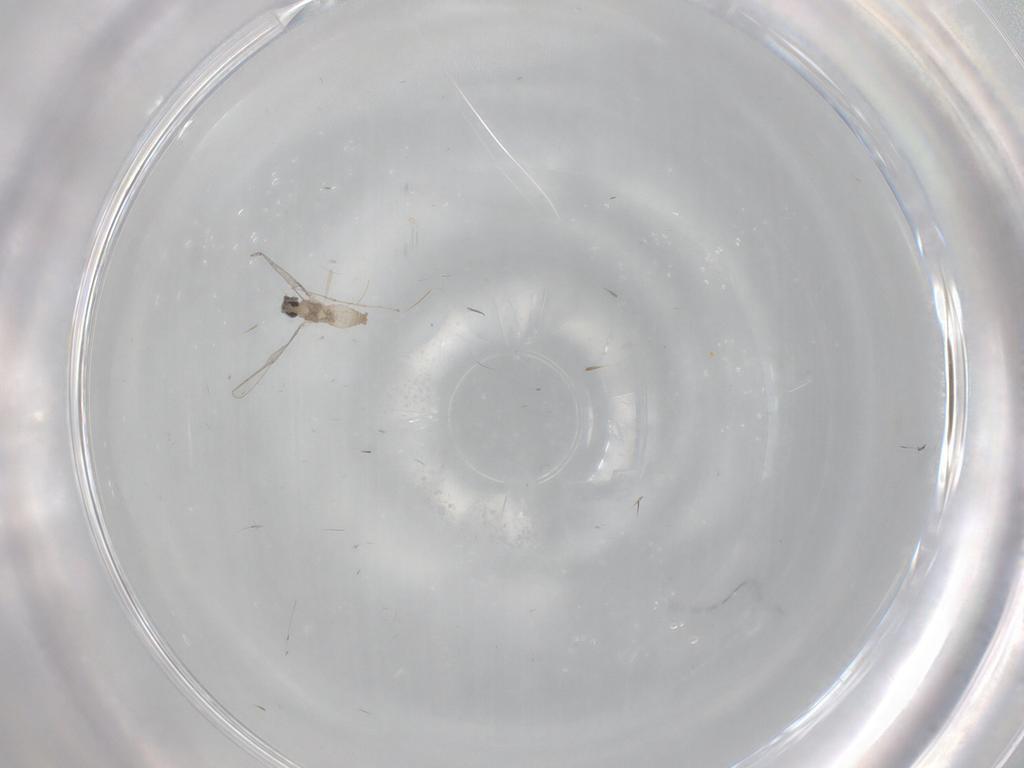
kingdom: Animalia
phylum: Arthropoda
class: Insecta
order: Diptera
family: Cecidomyiidae
